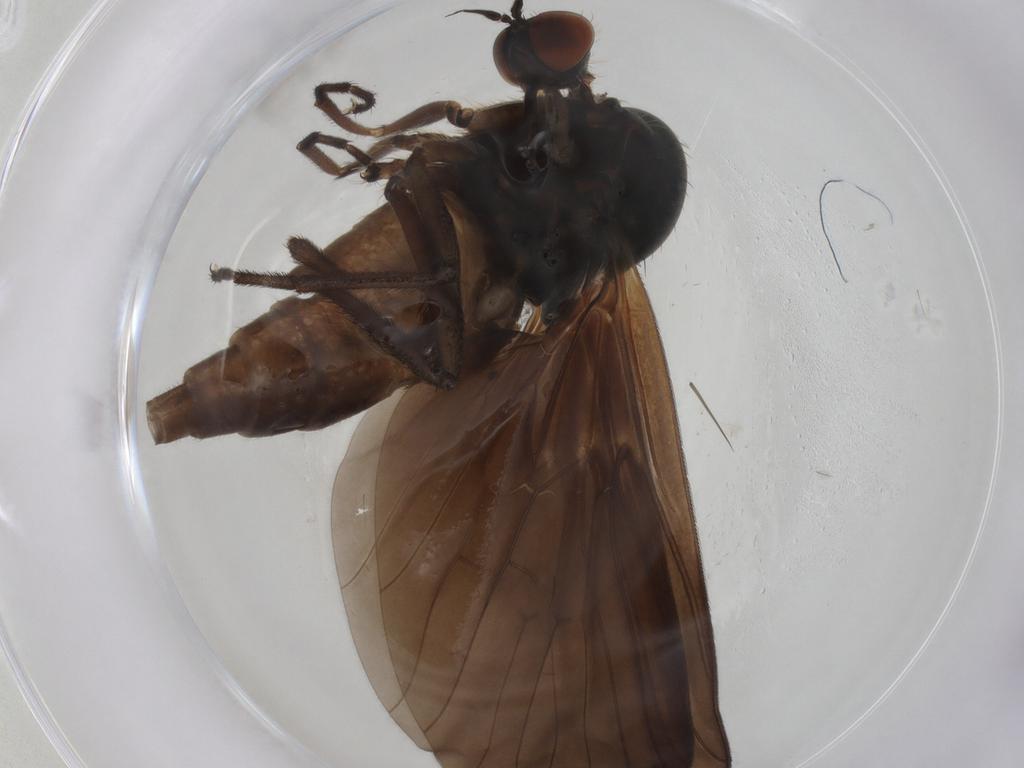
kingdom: Animalia
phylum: Arthropoda
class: Insecta
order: Diptera
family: Empididae
